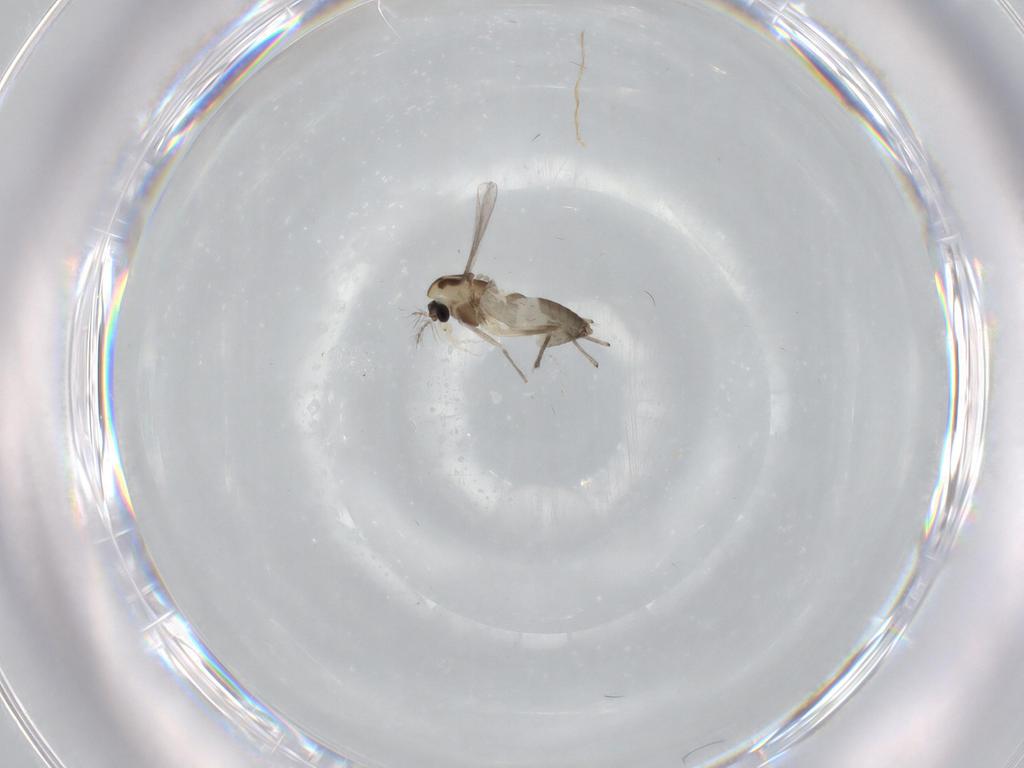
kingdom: Animalia
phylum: Arthropoda
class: Insecta
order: Diptera
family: Chironomidae
